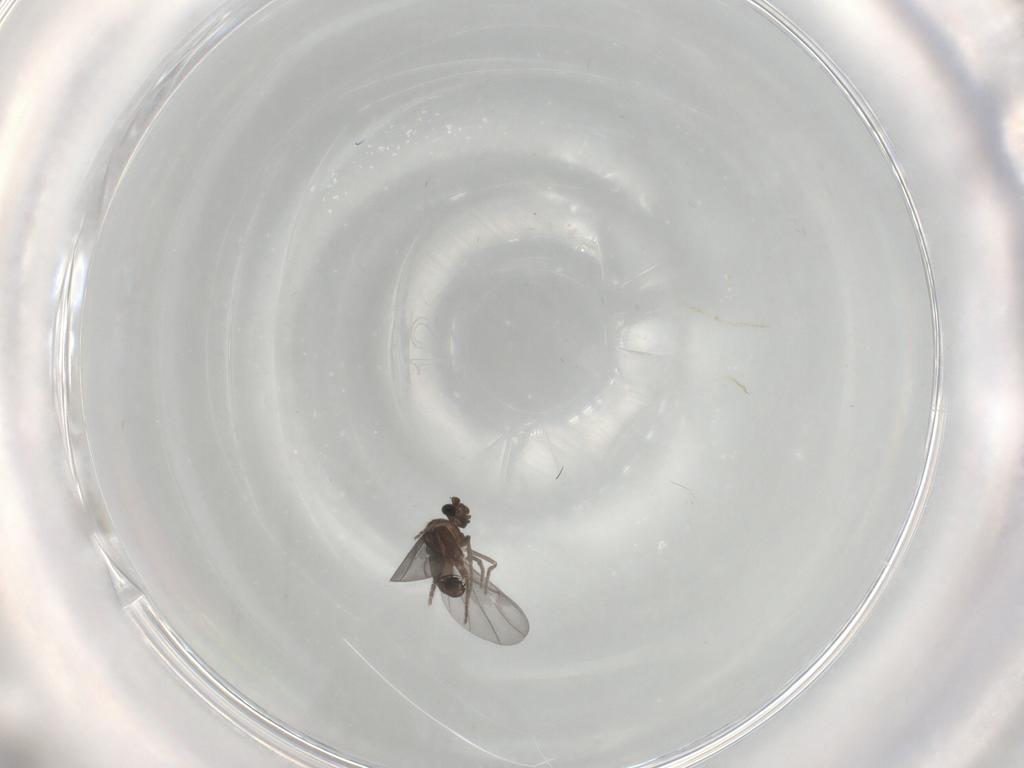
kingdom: Animalia
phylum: Arthropoda
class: Insecta
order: Diptera
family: Phoridae
